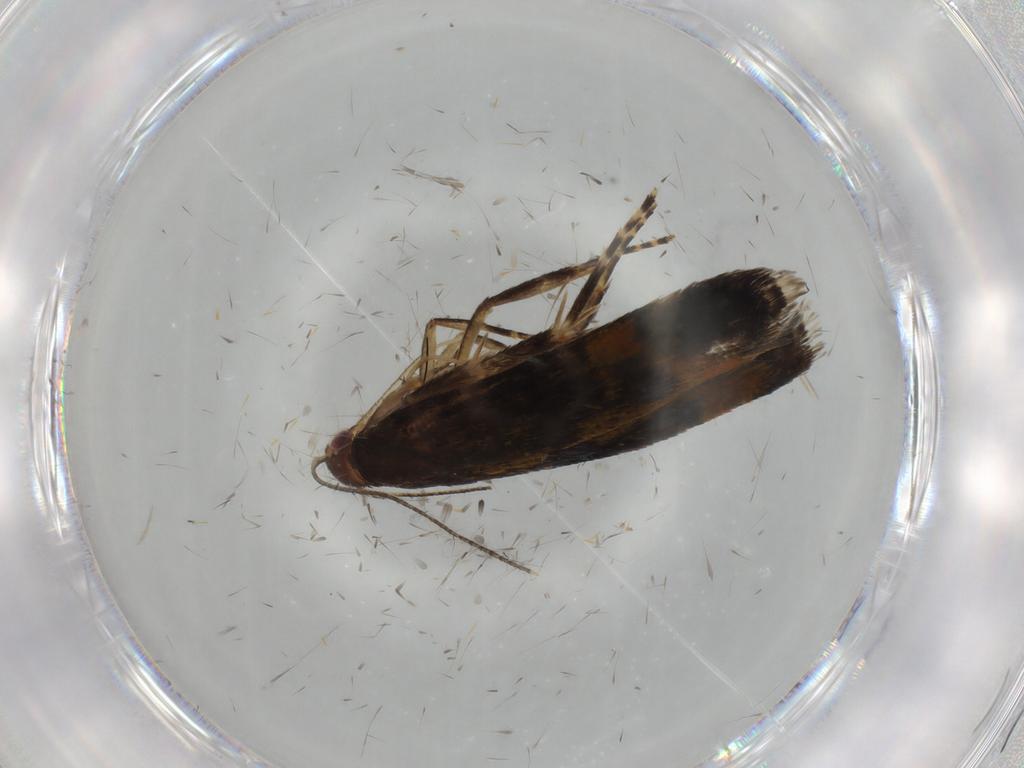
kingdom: Animalia
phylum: Arthropoda
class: Insecta
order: Lepidoptera
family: Gelechiidae
